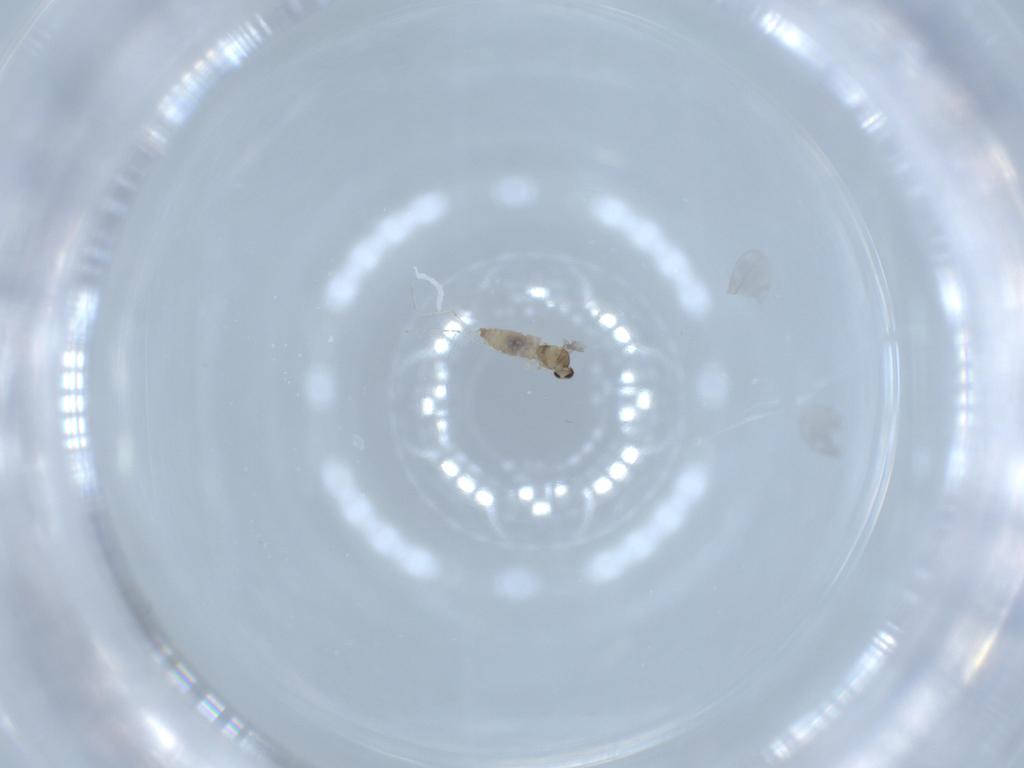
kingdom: Animalia
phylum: Arthropoda
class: Insecta
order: Diptera
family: Cecidomyiidae
